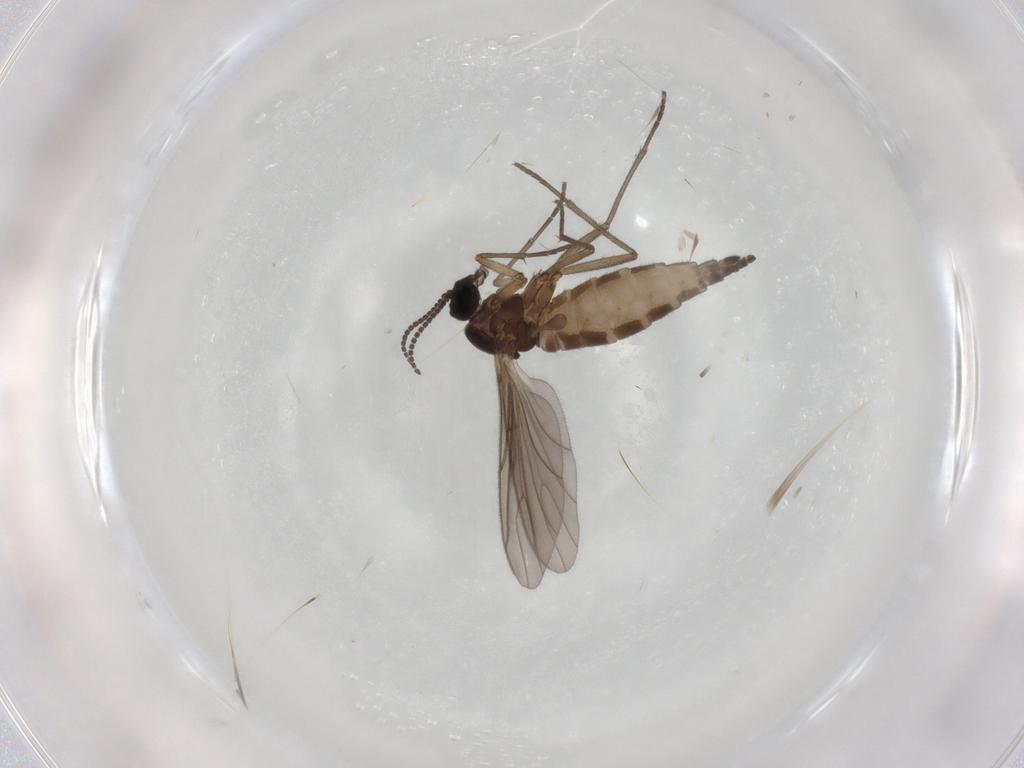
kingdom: Animalia
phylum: Arthropoda
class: Insecta
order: Diptera
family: Sciaridae
